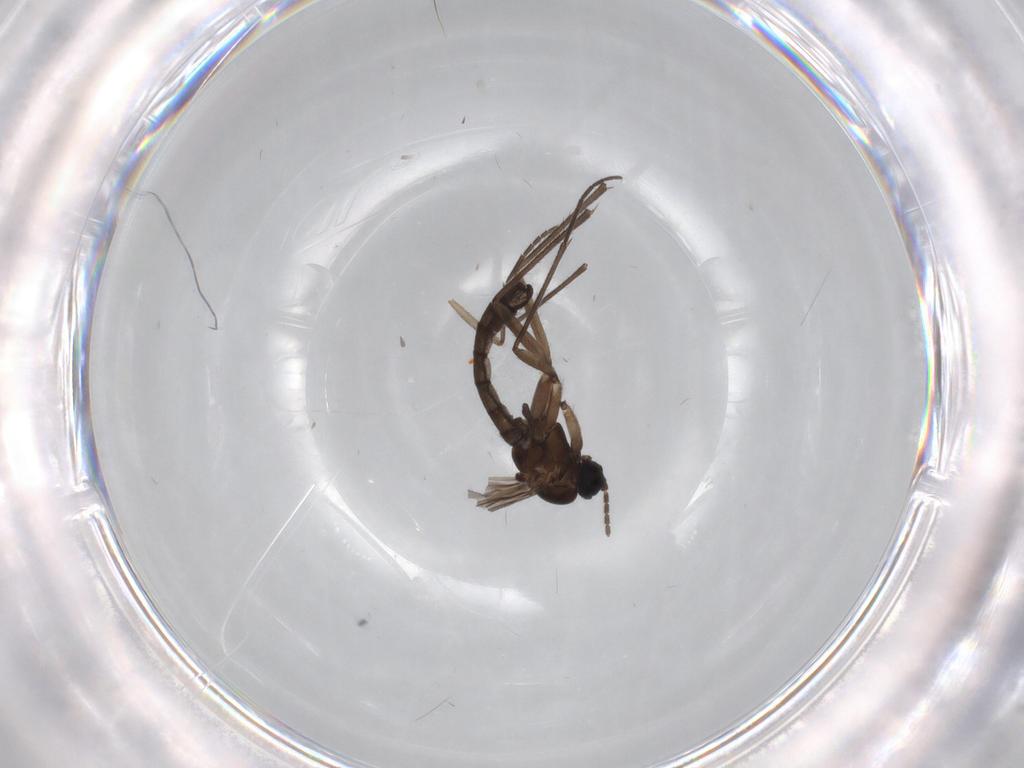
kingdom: Animalia
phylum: Arthropoda
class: Insecta
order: Diptera
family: Sciaridae
